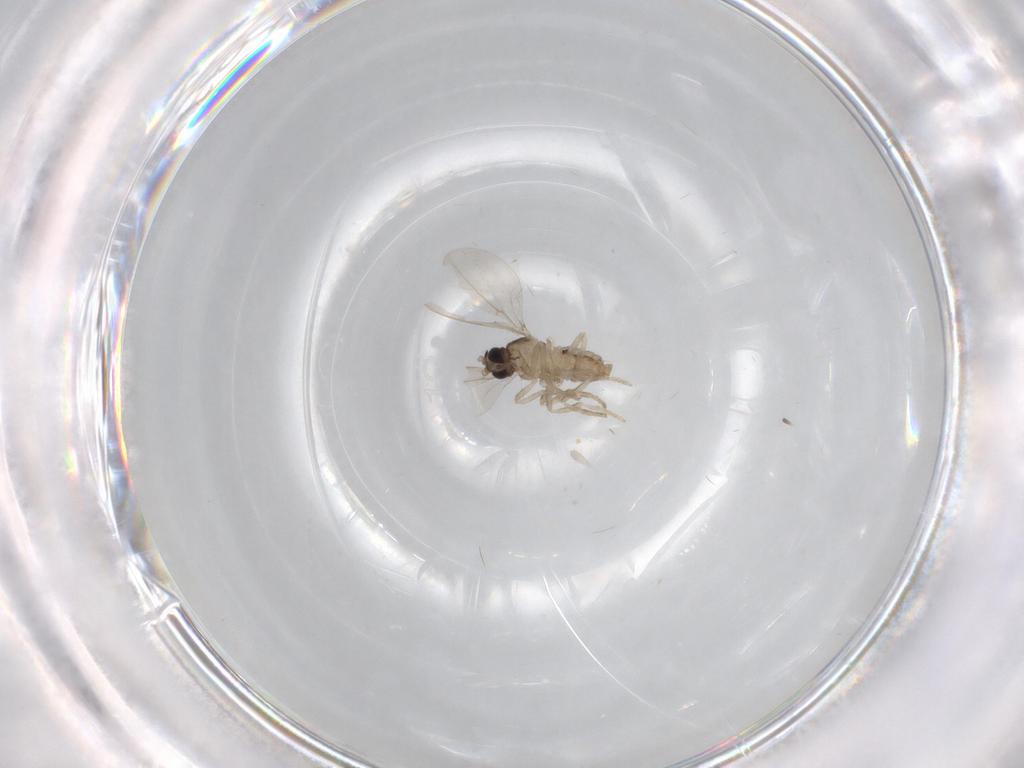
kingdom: Animalia
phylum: Arthropoda
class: Insecta
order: Diptera
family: Cecidomyiidae
